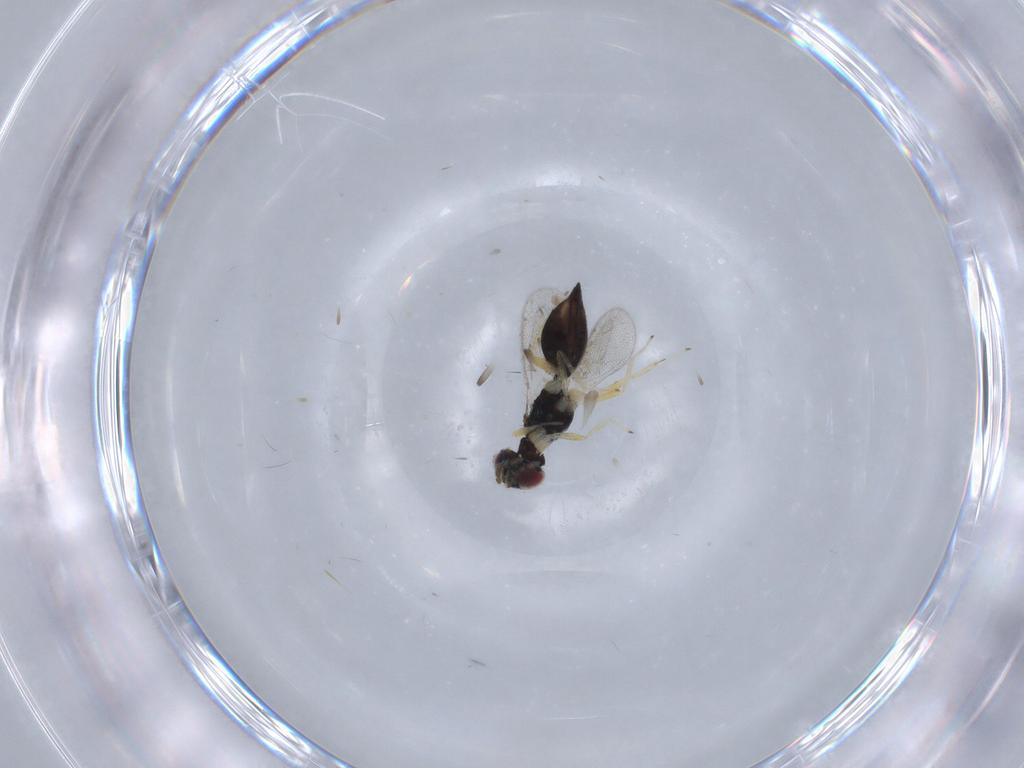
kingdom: Animalia
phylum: Arthropoda
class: Insecta
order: Hymenoptera
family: Eulophidae
